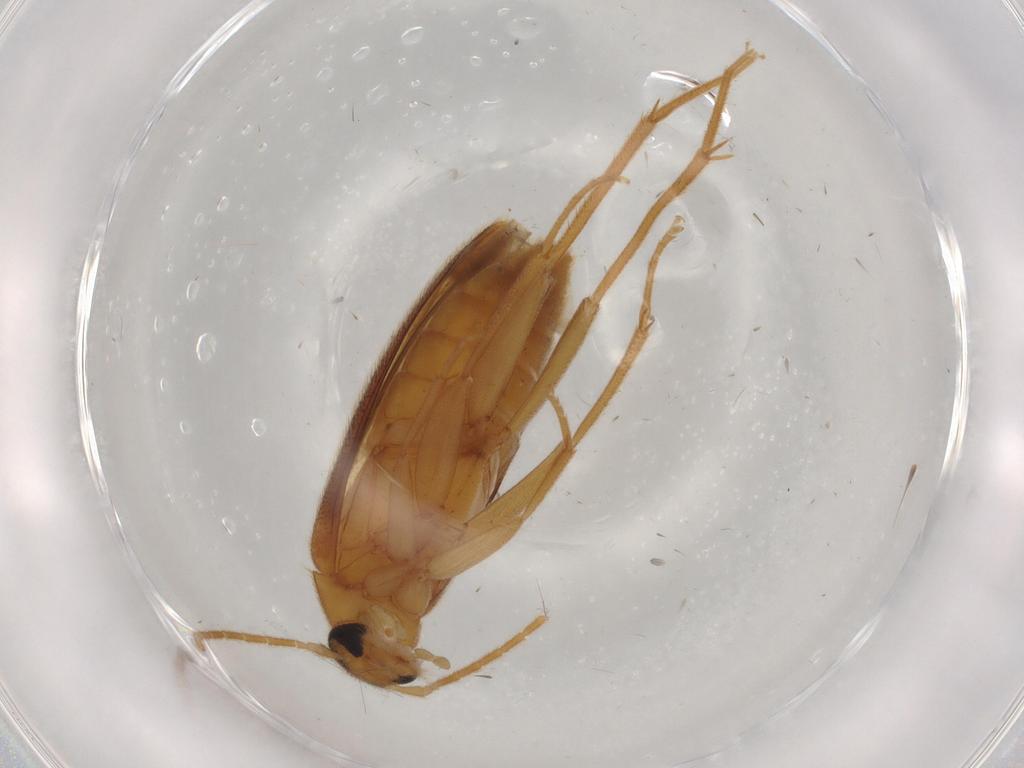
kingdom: Animalia
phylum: Arthropoda
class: Insecta
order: Coleoptera
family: Scraptiidae
